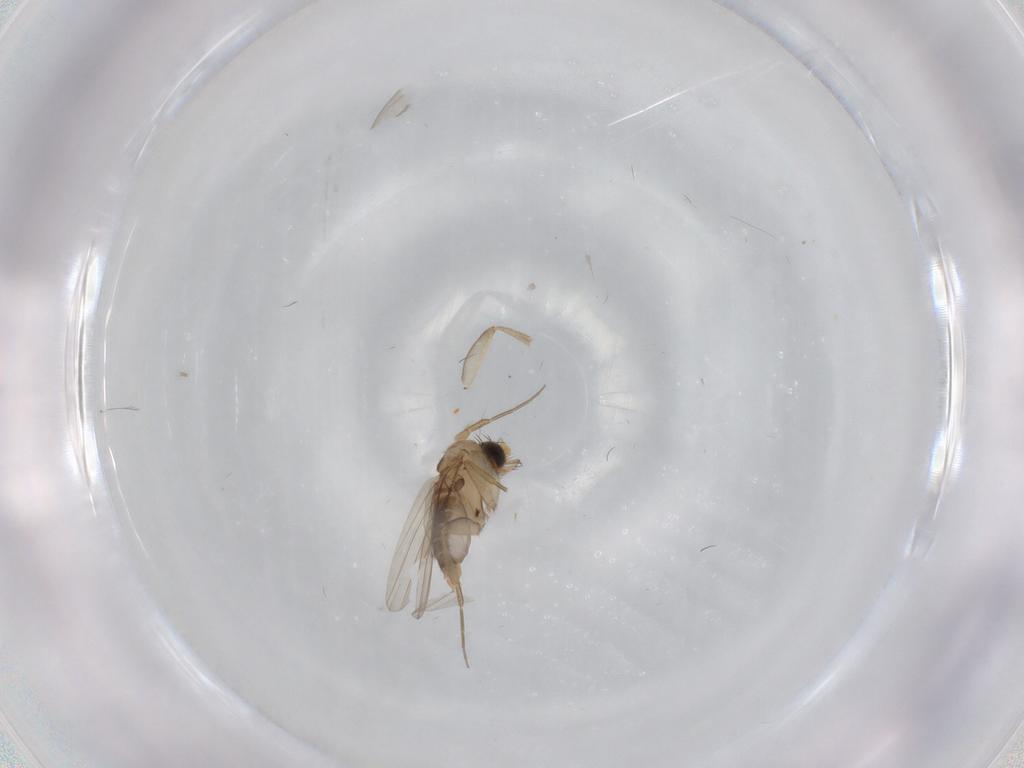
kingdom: Animalia
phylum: Arthropoda
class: Insecta
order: Diptera
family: Phoridae
